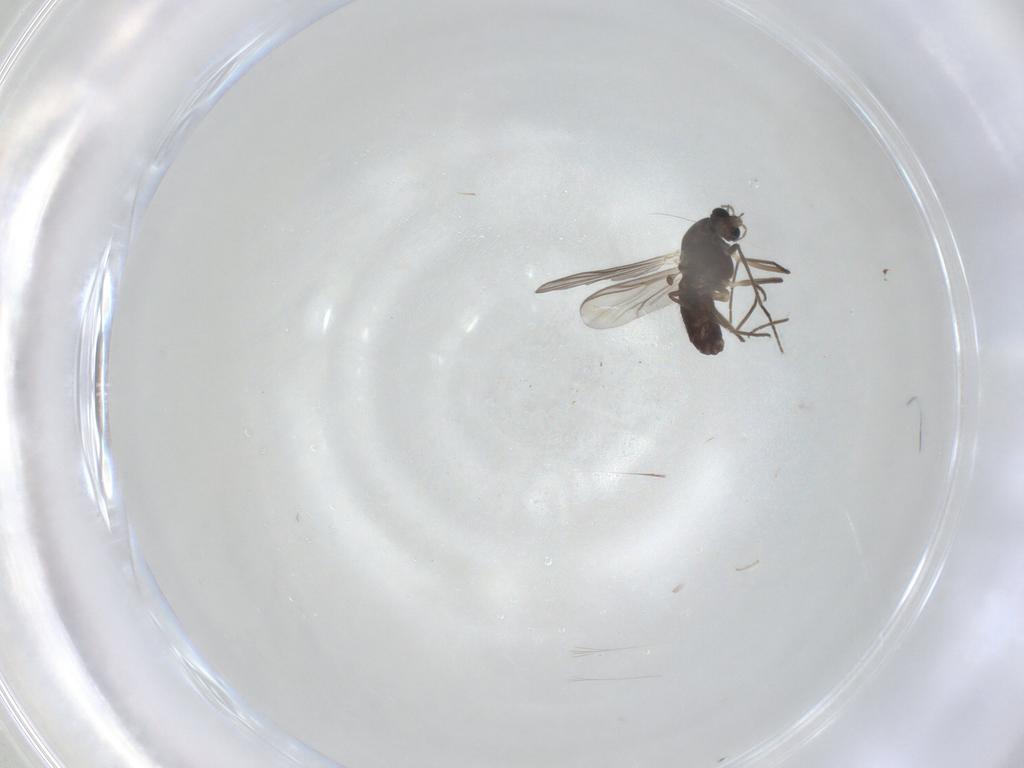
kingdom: Animalia
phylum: Arthropoda
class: Insecta
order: Diptera
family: Chironomidae
